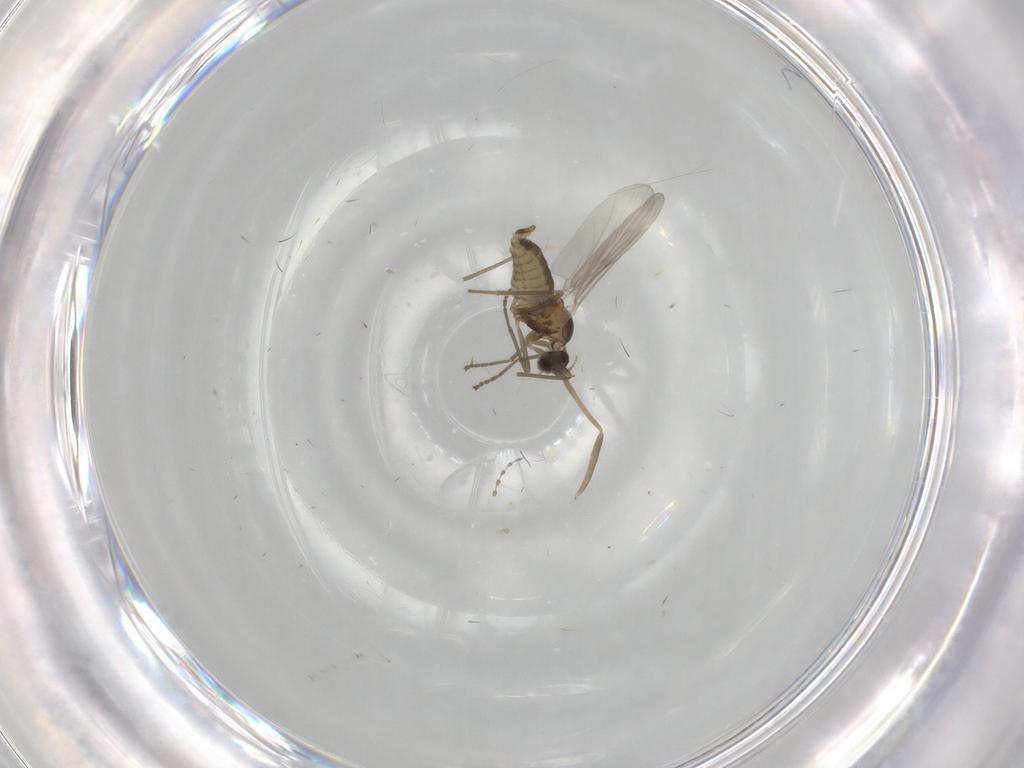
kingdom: Animalia
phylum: Arthropoda
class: Insecta
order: Diptera
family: Cecidomyiidae
